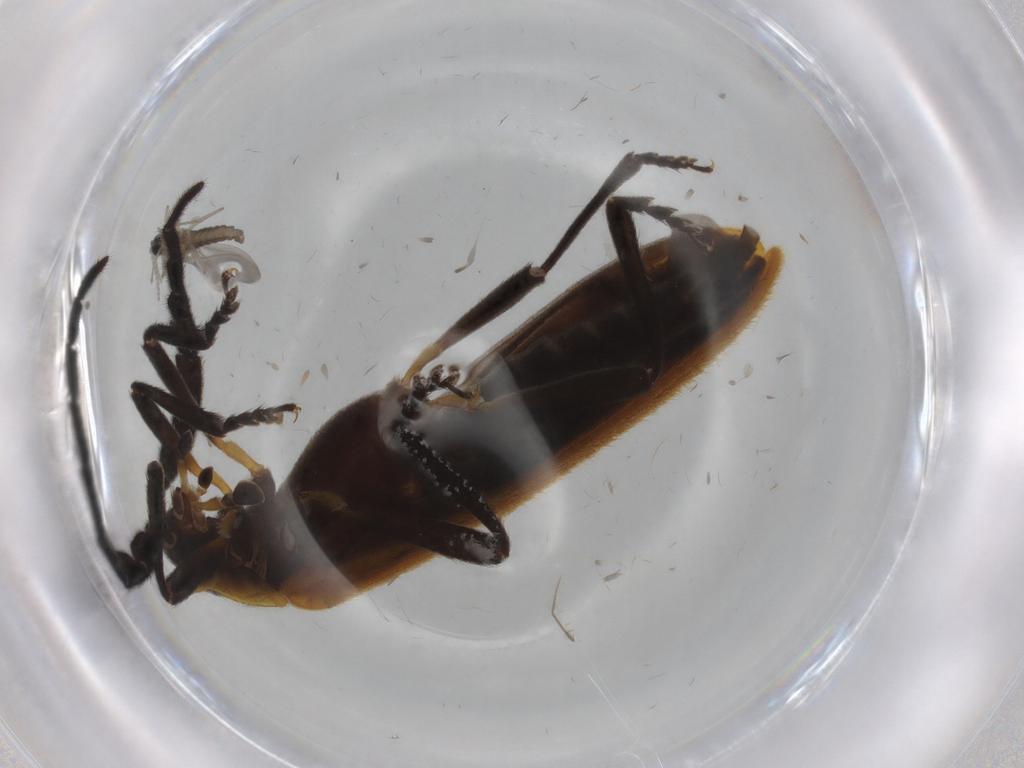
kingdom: Animalia
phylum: Arthropoda
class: Insecta
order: Coleoptera
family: Lycidae
